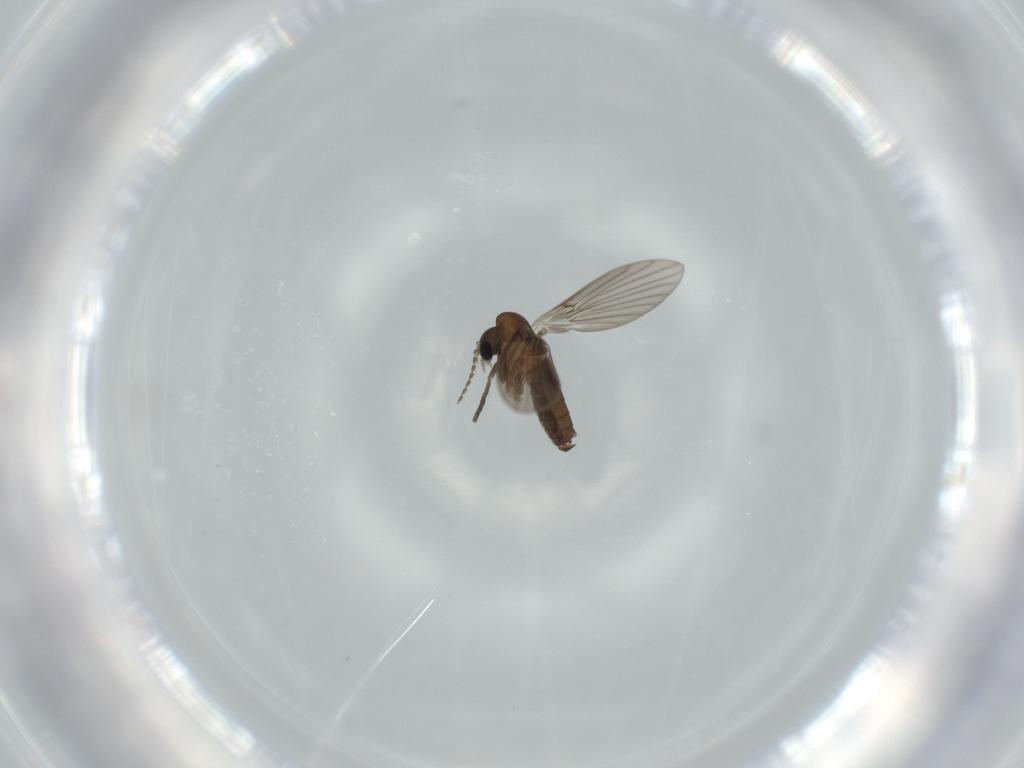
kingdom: Animalia
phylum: Arthropoda
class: Insecta
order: Diptera
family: Psychodidae
